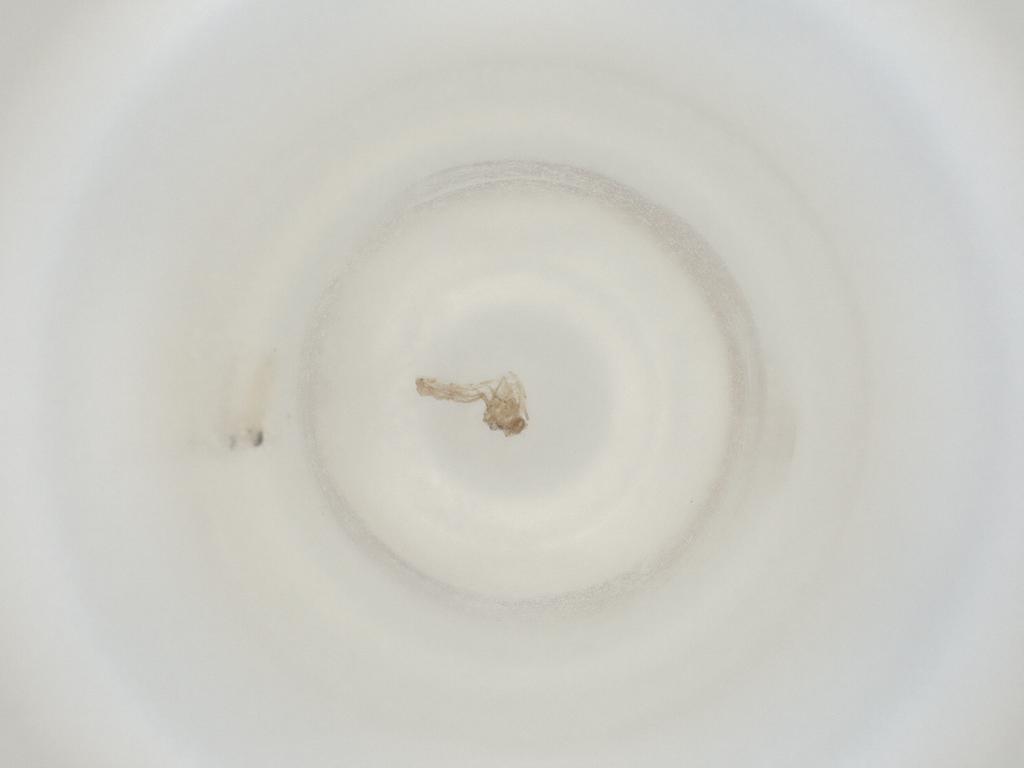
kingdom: Animalia
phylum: Arthropoda
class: Insecta
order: Diptera
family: Cecidomyiidae
